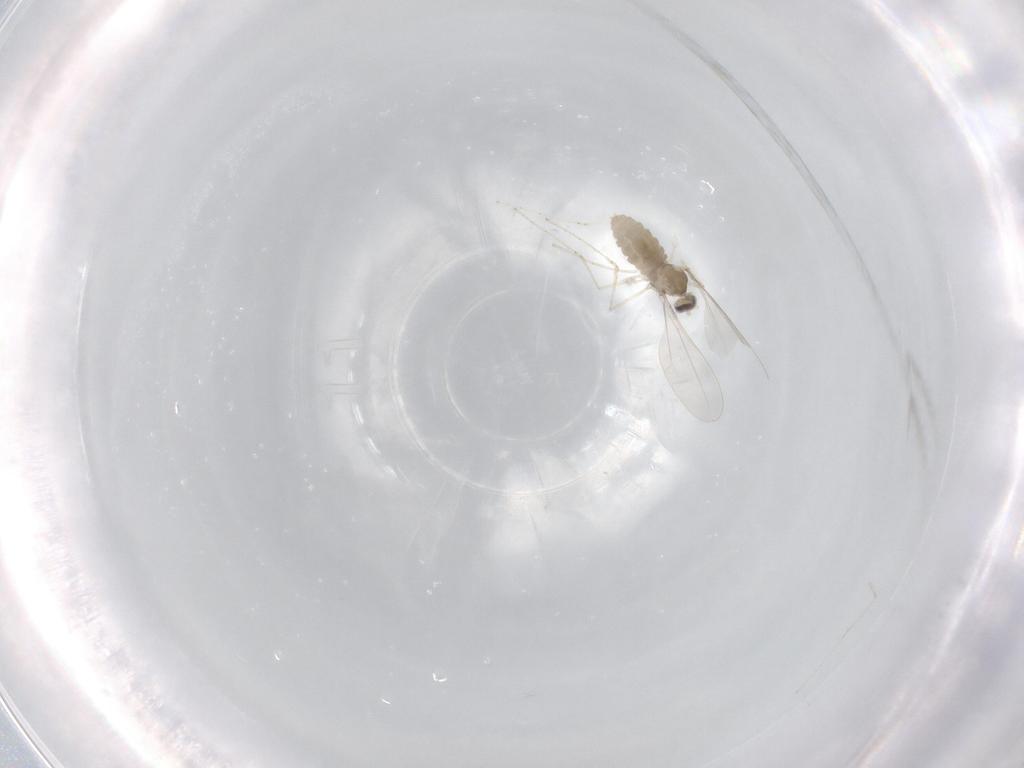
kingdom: Animalia
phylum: Arthropoda
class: Insecta
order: Diptera
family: Cecidomyiidae
